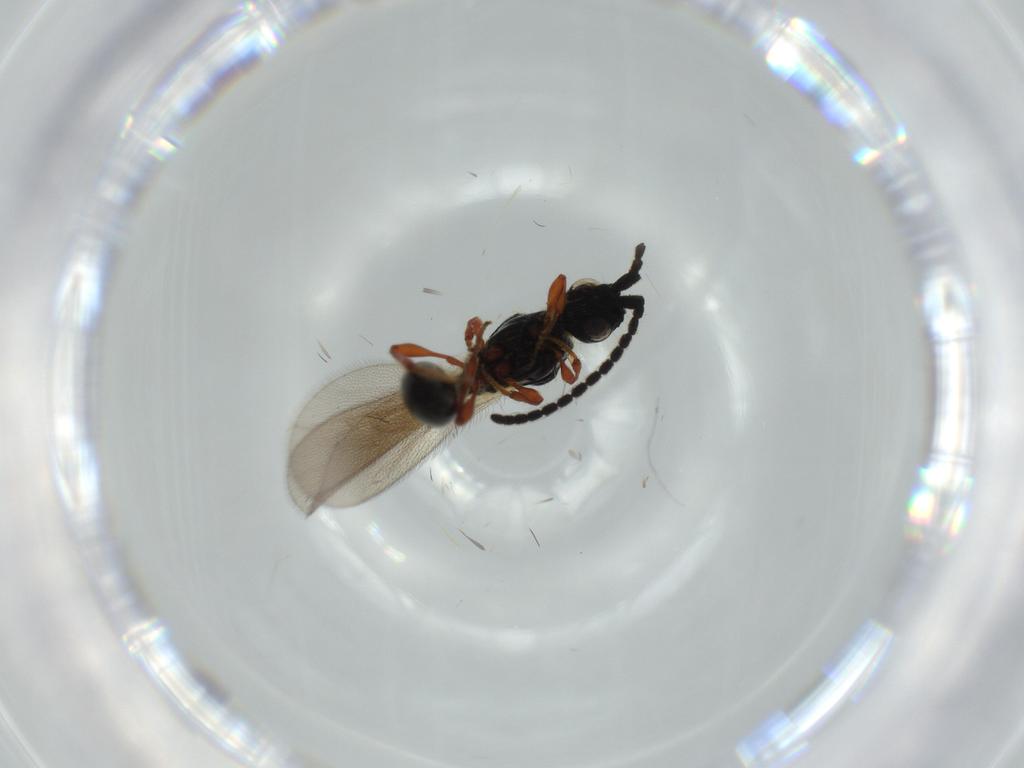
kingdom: Animalia
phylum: Arthropoda
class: Insecta
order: Hymenoptera
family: Diapriidae
